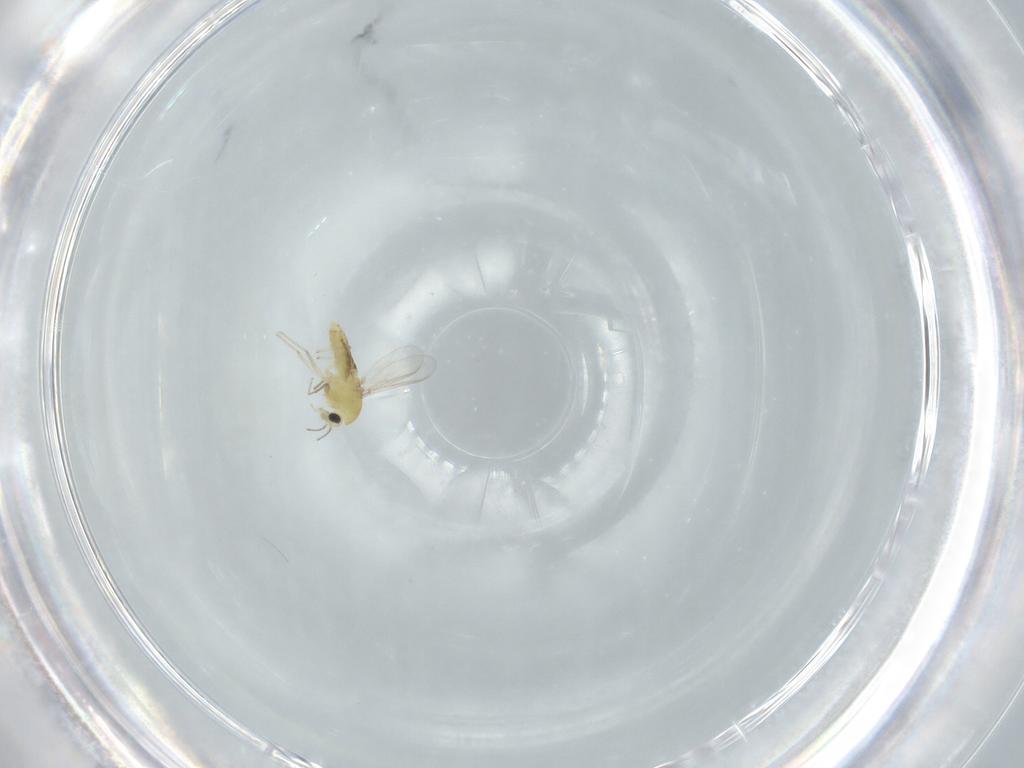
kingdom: Animalia
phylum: Arthropoda
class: Insecta
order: Diptera
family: Chironomidae
